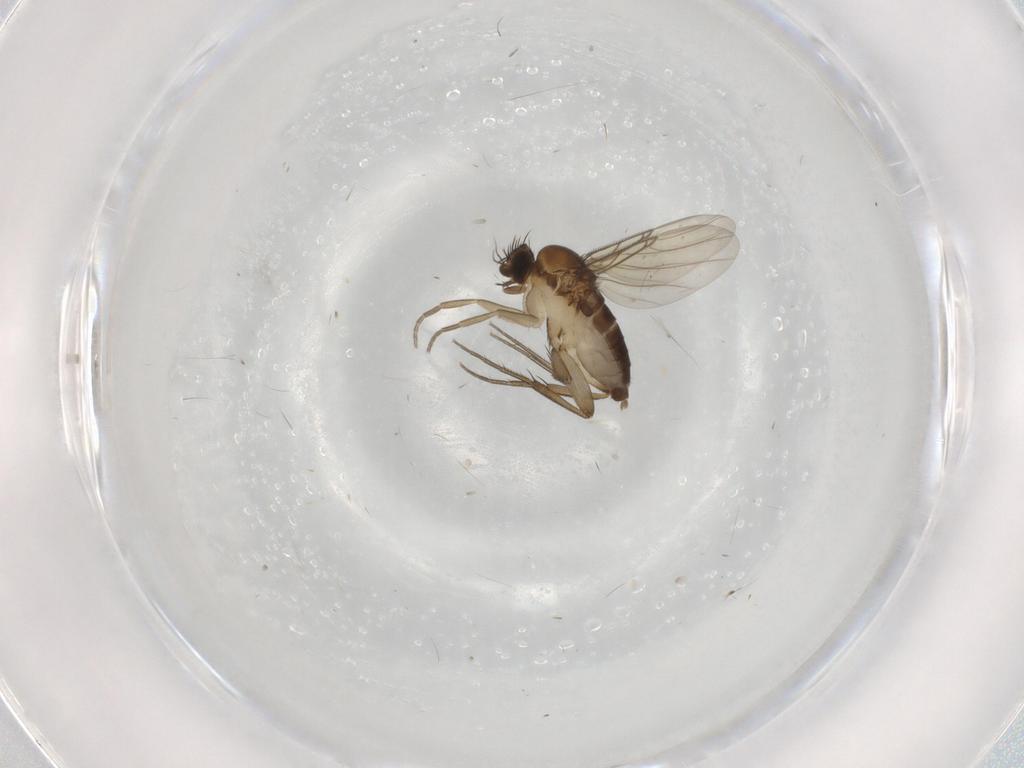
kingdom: Animalia
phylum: Arthropoda
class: Insecta
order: Diptera
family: Phoridae
